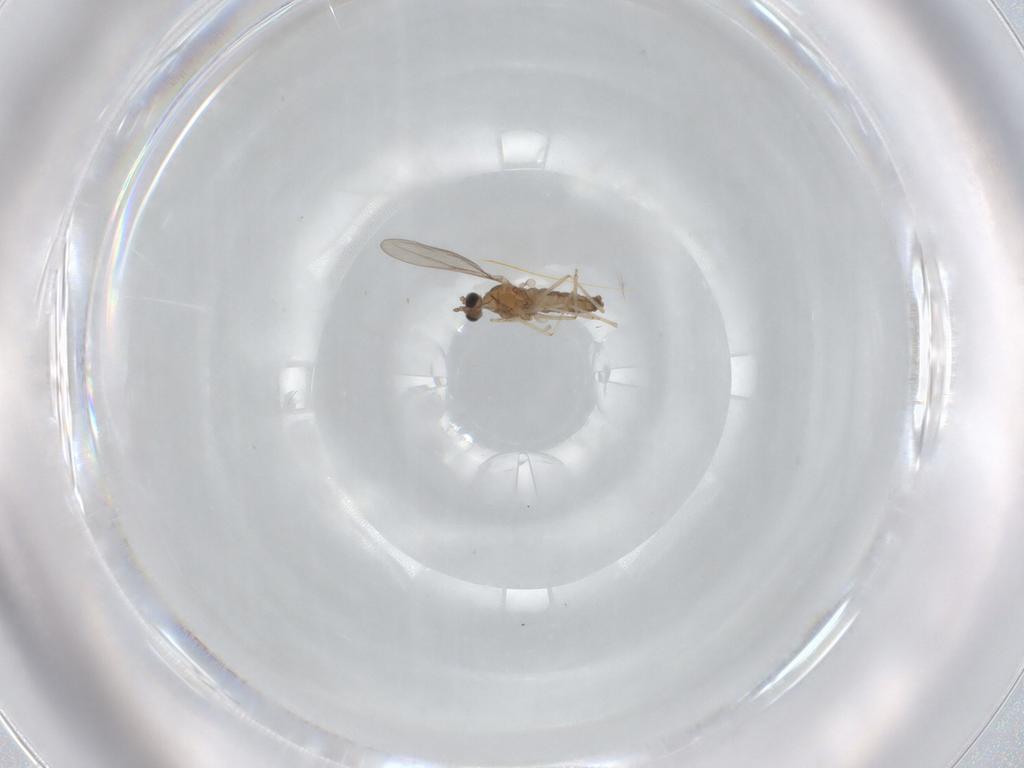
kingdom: Animalia
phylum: Arthropoda
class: Insecta
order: Diptera
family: Cecidomyiidae
